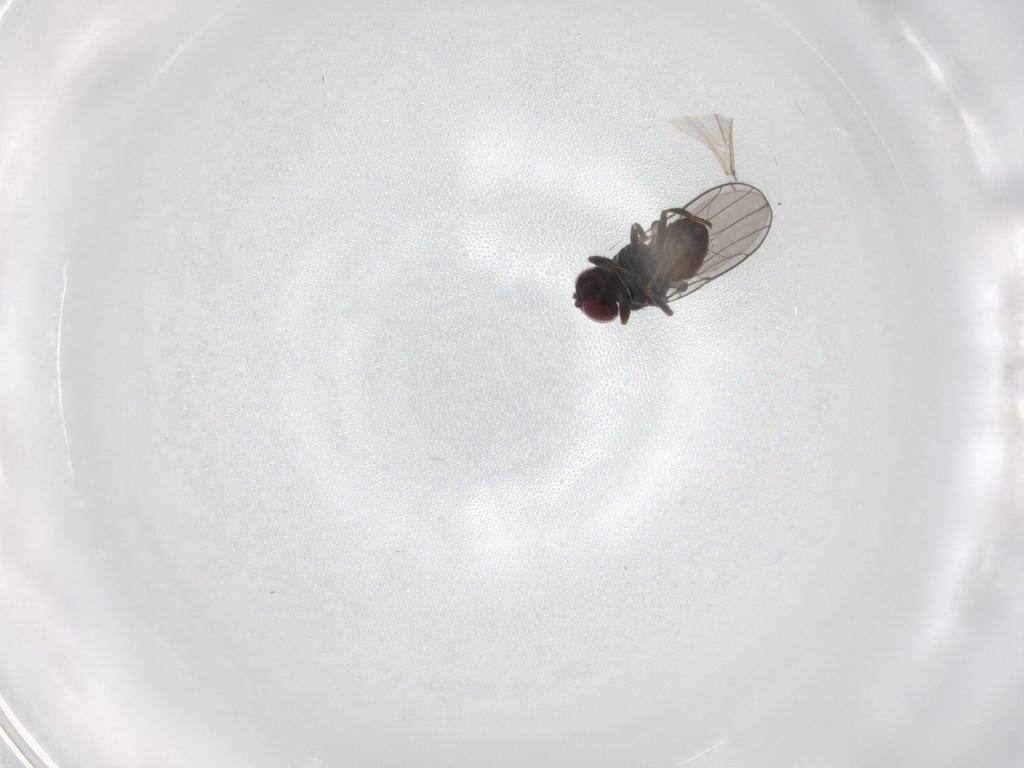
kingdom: Animalia
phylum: Arthropoda
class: Insecta
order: Diptera
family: Chloropidae
